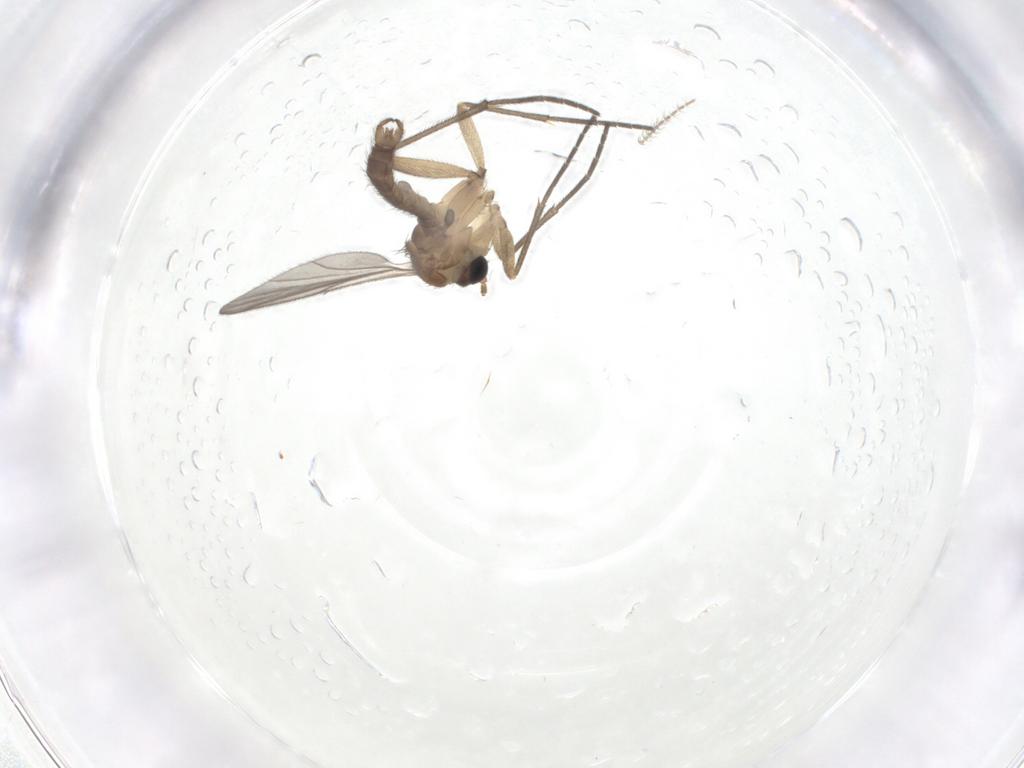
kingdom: Animalia
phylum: Arthropoda
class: Insecta
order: Diptera
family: Sciaridae
